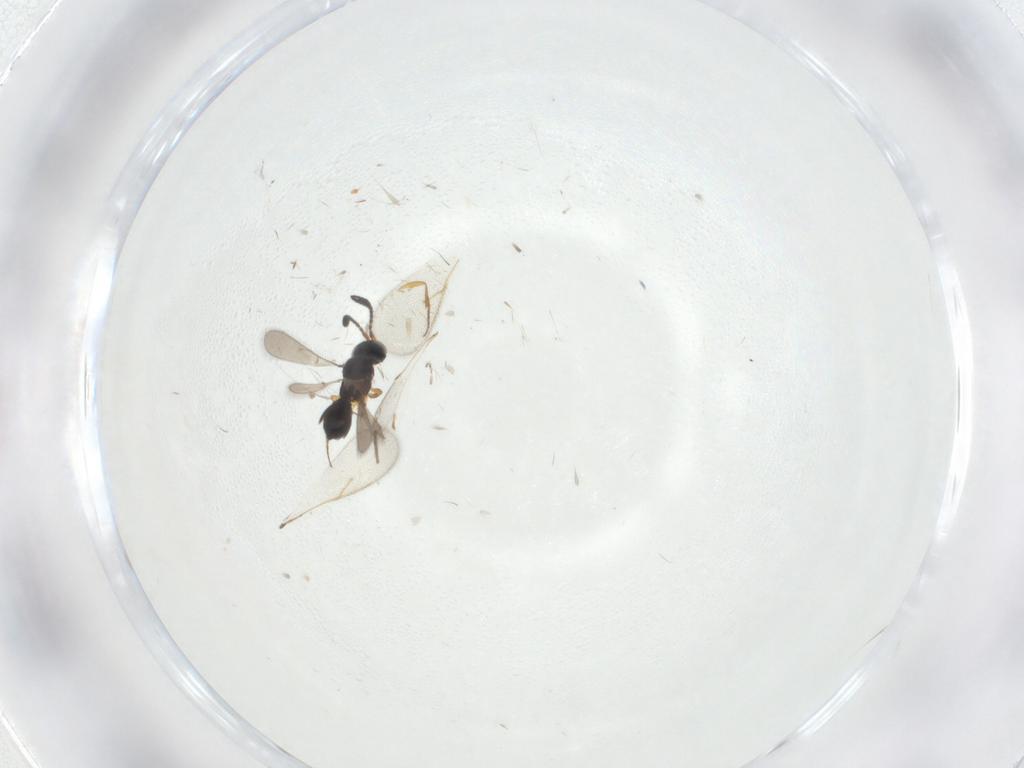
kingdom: Animalia
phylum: Arthropoda
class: Insecta
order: Hymenoptera
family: Scelionidae
